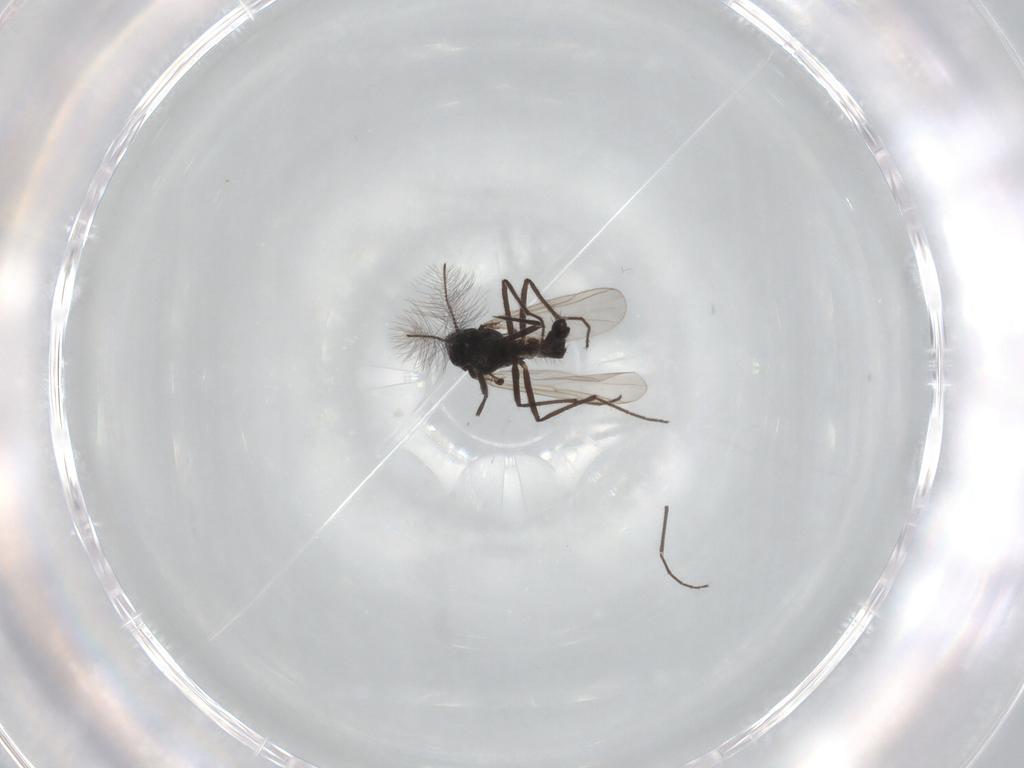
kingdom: Animalia
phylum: Arthropoda
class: Insecta
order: Diptera
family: Chironomidae
